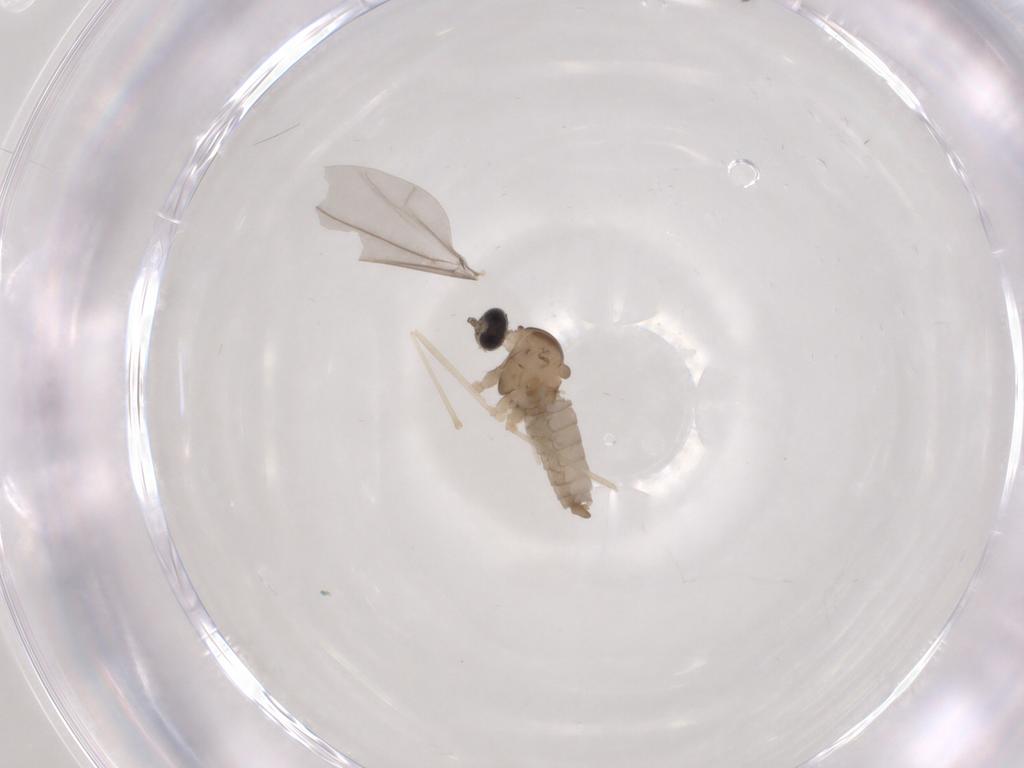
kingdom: Animalia
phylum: Arthropoda
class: Insecta
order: Diptera
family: Cecidomyiidae
